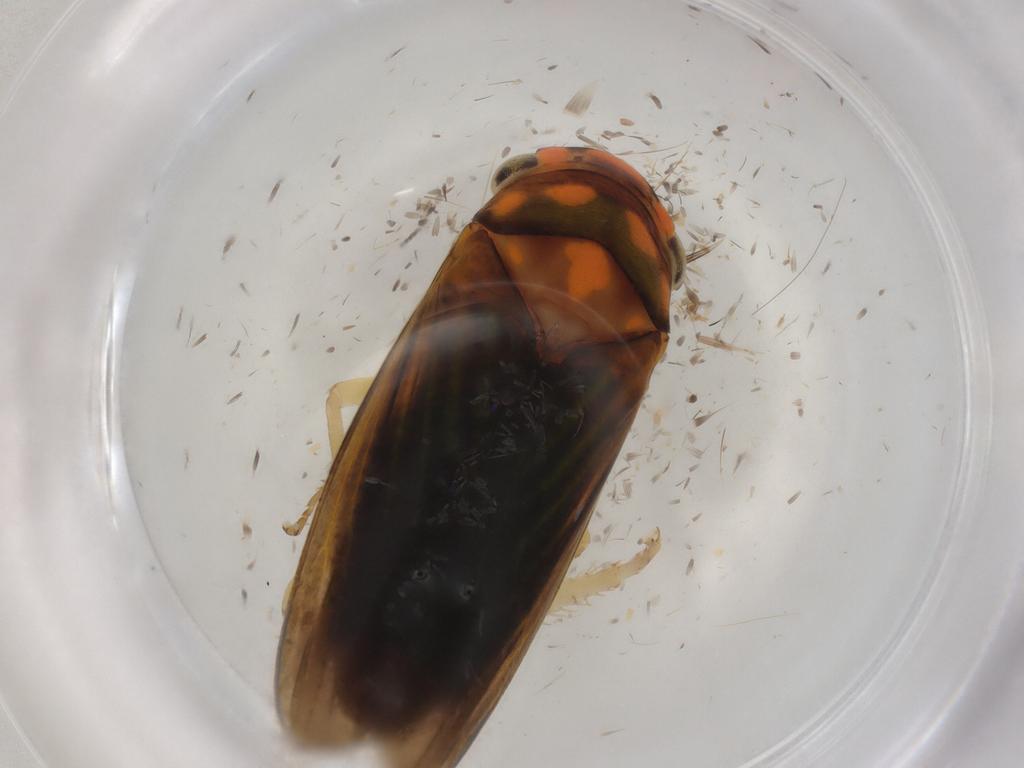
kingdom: Animalia
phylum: Arthropoda
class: Insecta
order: Hemiptera
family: Cicadellidae
